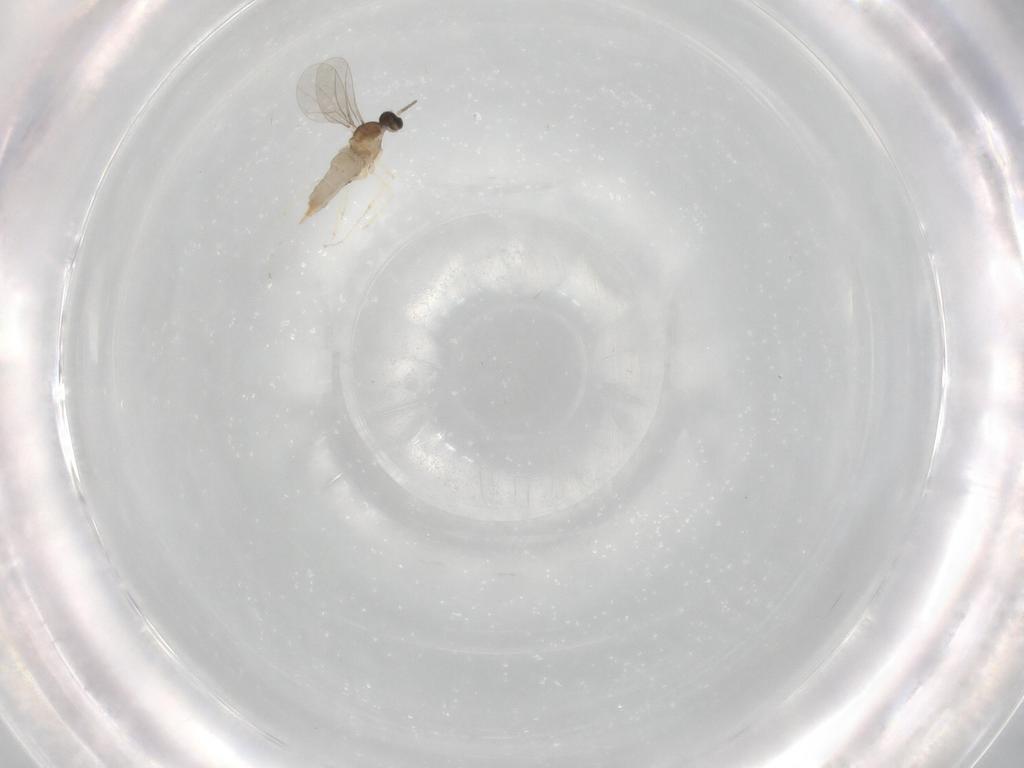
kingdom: Animalia
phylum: Arthropoda
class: Insecta
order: Diptera
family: Cecidomyiidae
